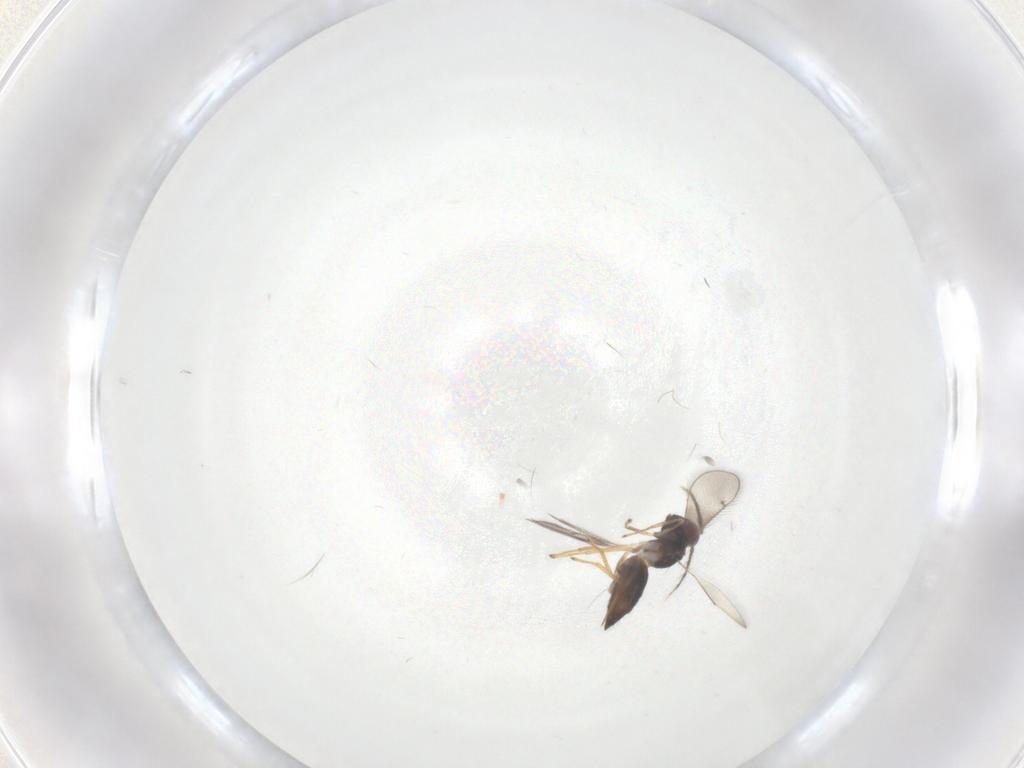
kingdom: Animalia
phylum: Arthropoda
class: Insecta
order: Hymenoptera
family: Eulophidae
